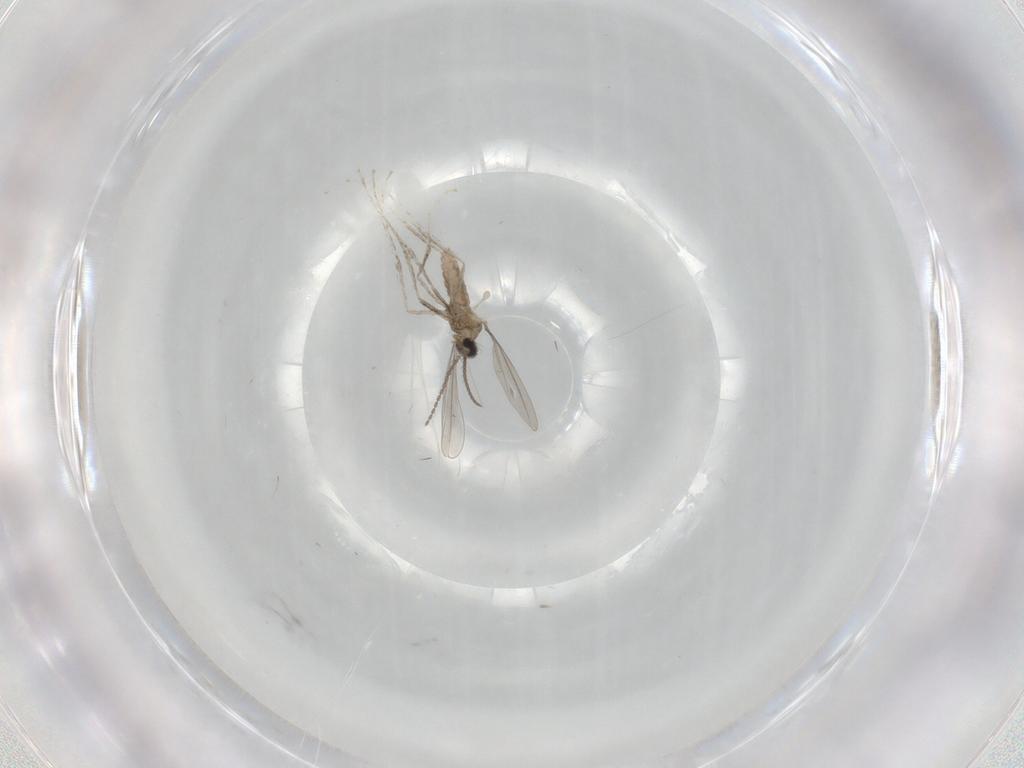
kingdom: Animalia
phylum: Arthropoda
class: Insecta
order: Diptera
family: Cecidomyiidae
